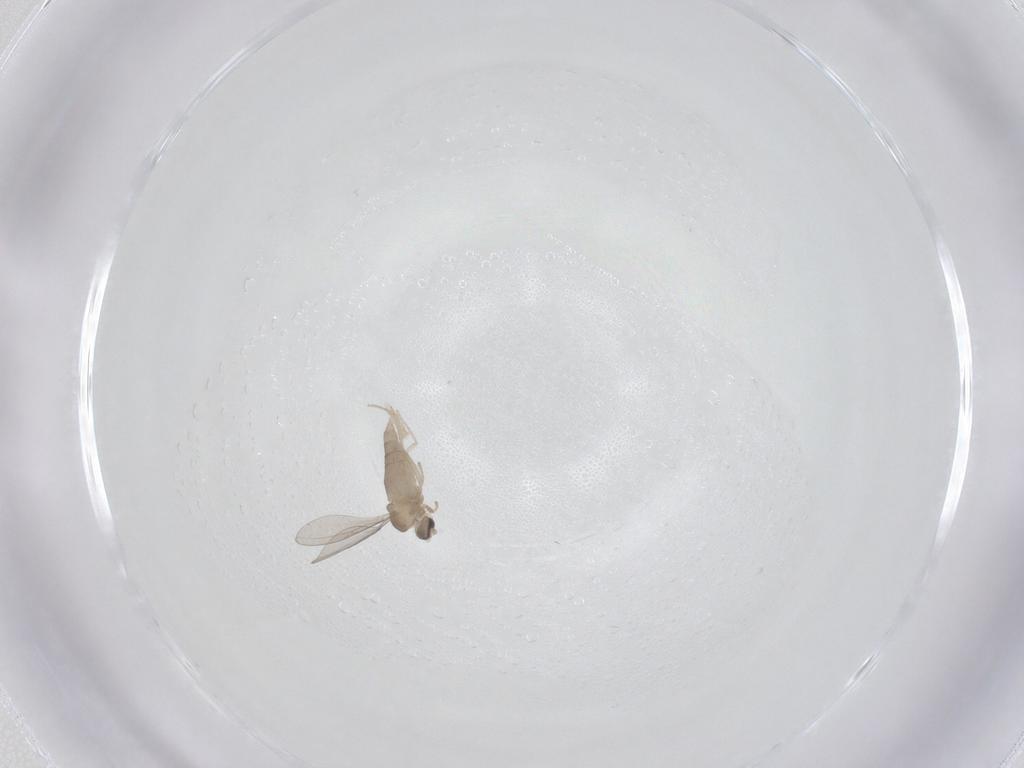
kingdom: Animalia
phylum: Arthropoda
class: Insecta
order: Diptera
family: Cecidomyiidae
